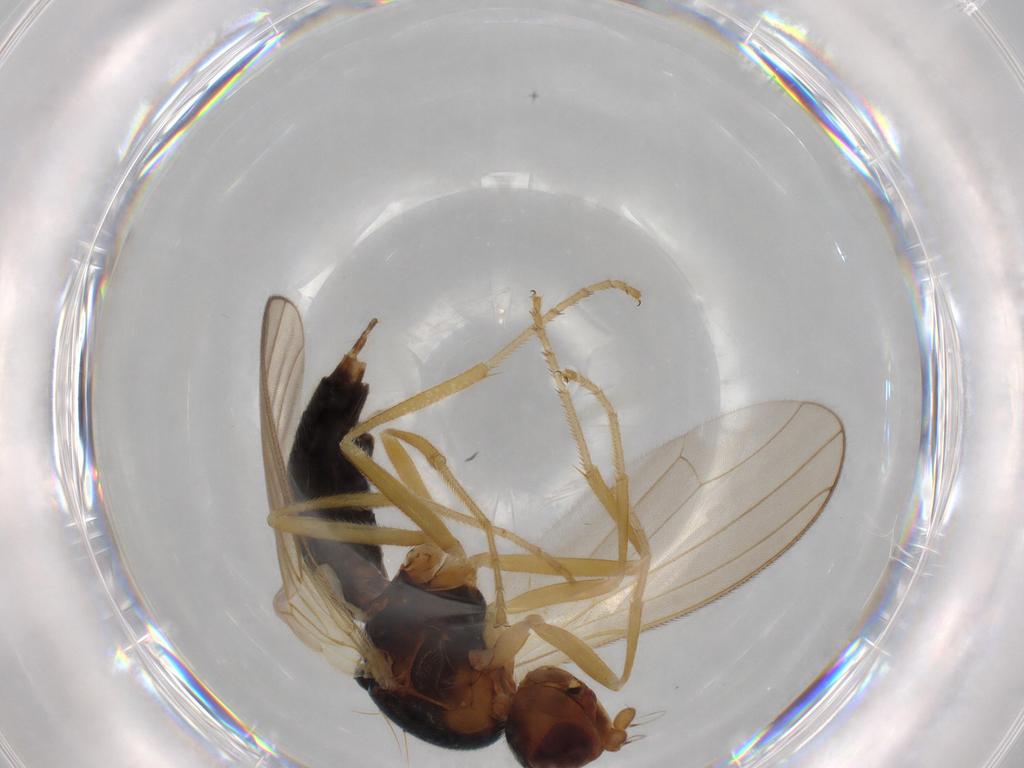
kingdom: Animalia
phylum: Arthropoda
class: Insecta
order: Diptera
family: Psilidae
